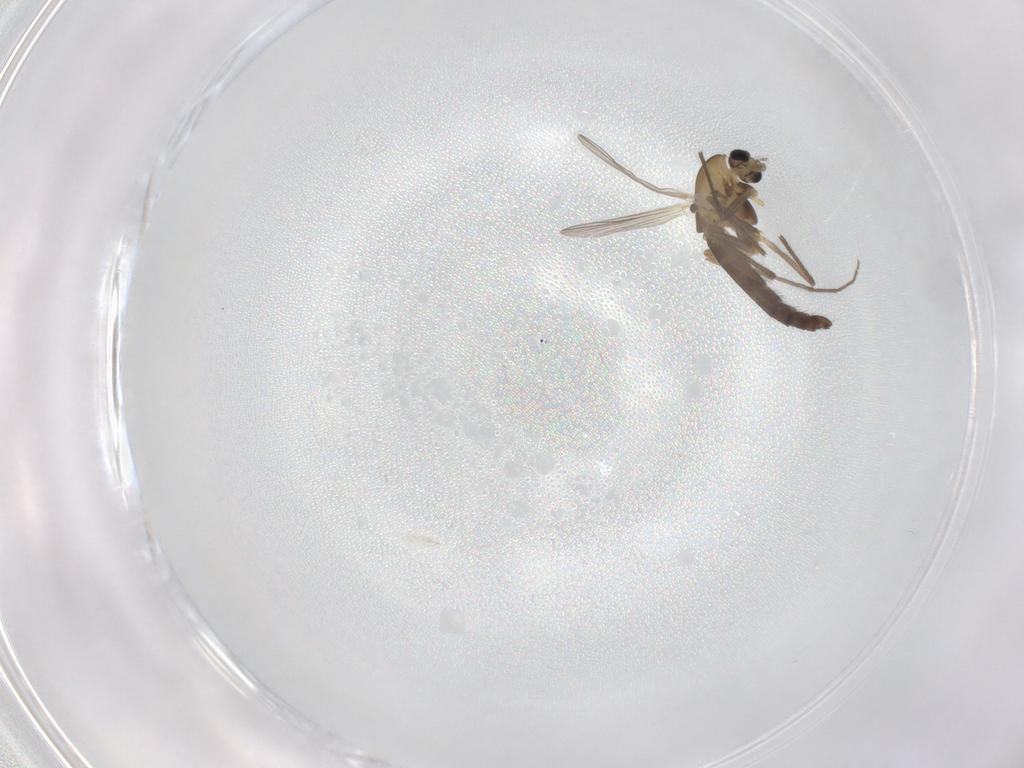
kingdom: Animalia
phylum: Arthropoda
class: Insecta
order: Diptera
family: Chironomidae
